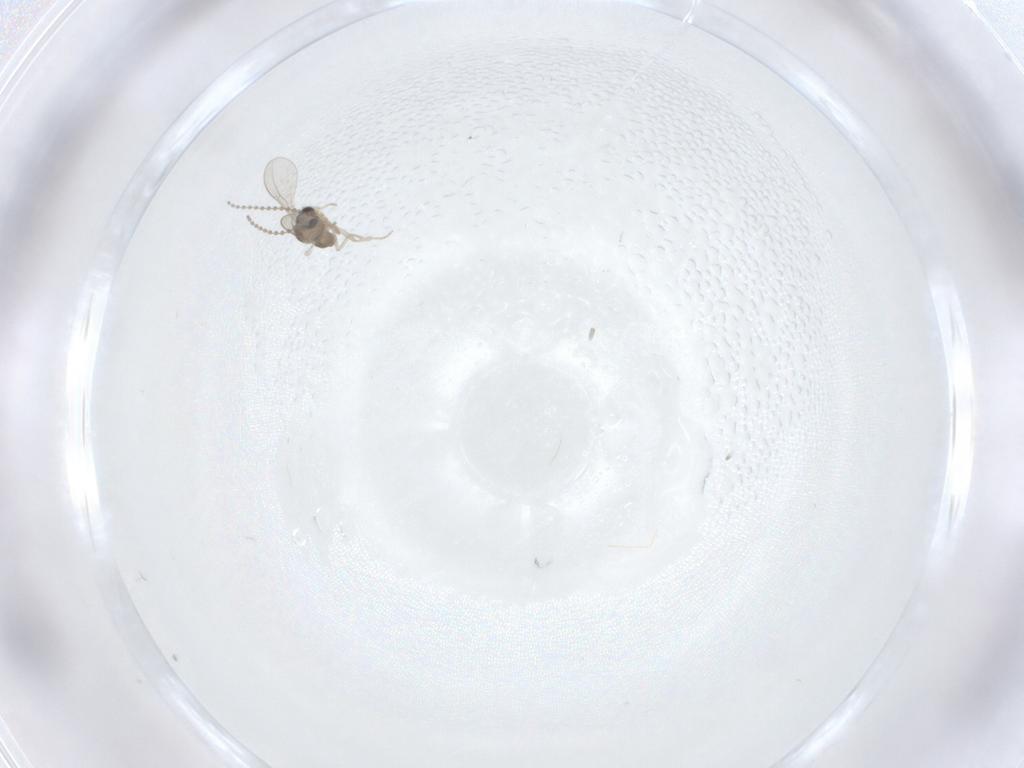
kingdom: Animalia
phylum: Arthropoda
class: Insecta
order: Diptera
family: Cecidomyiidae
